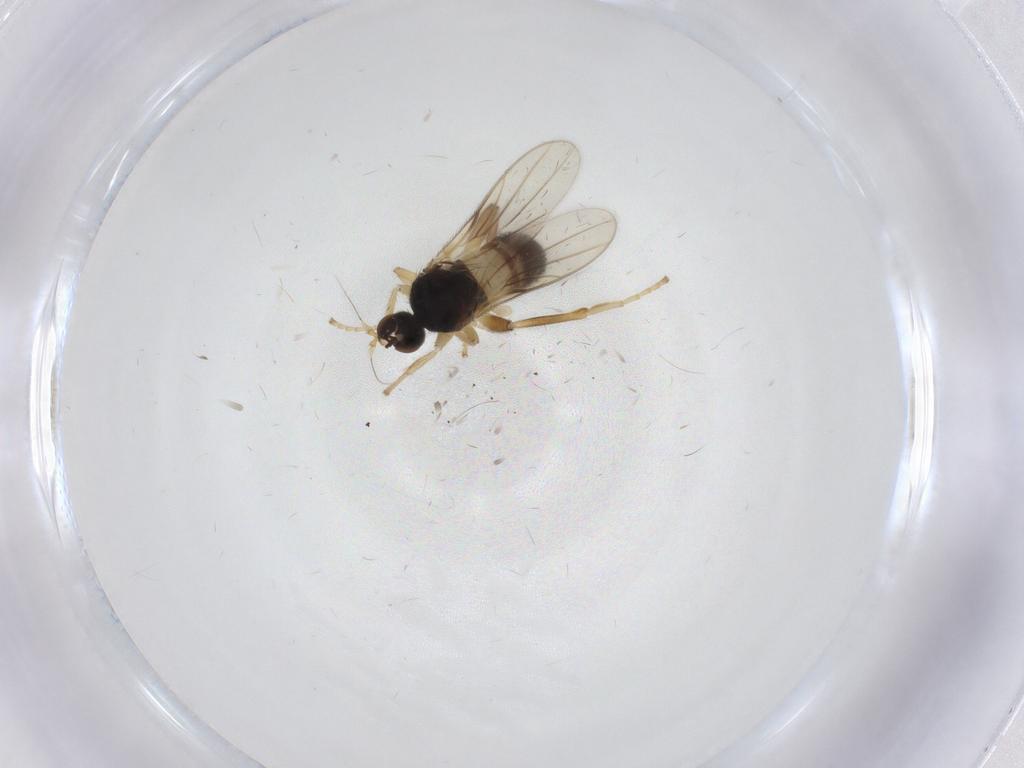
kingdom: Animalia
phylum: Arthropoda
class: Insecta
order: Diptera
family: Hybotidae
